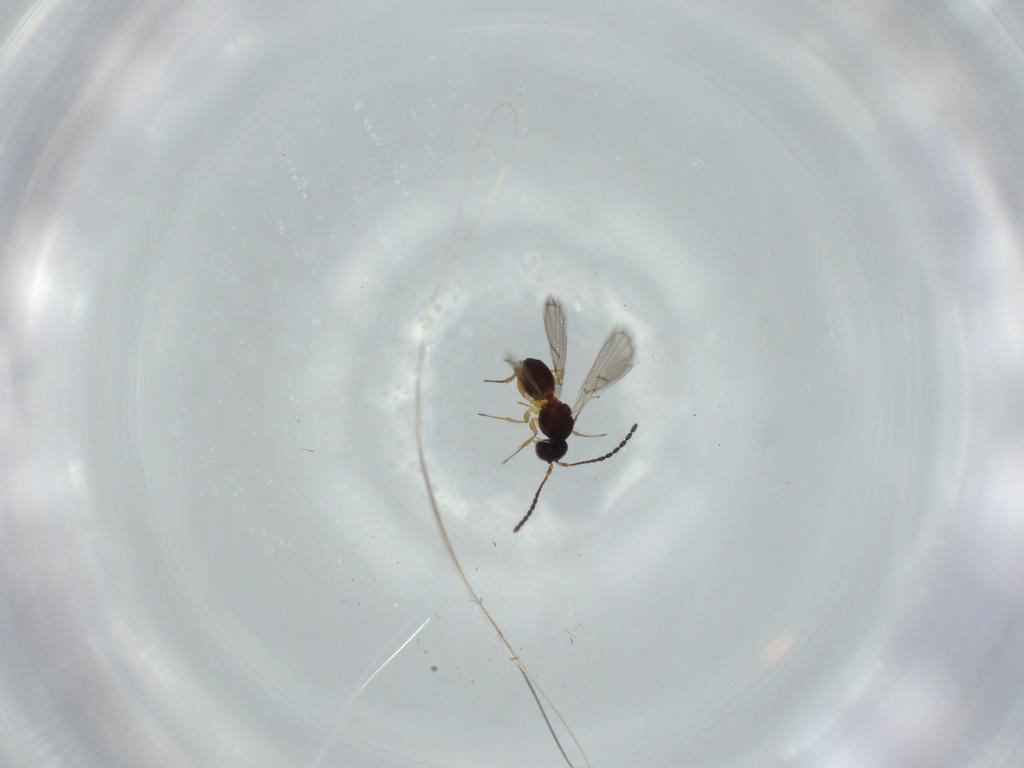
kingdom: Animalia
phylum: Arthropoda
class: Insecta
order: Hymenoptera
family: Figitidae
